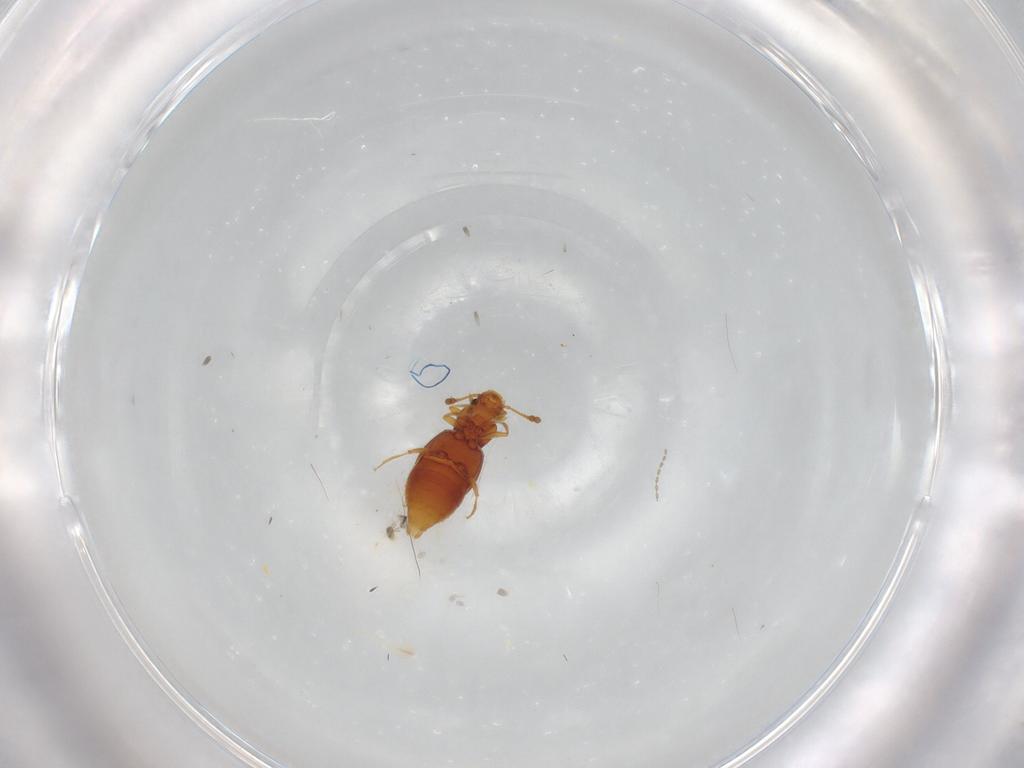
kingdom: Animalia
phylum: Arthropoda
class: Insecta
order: Coleoptera
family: Staphylinidae
